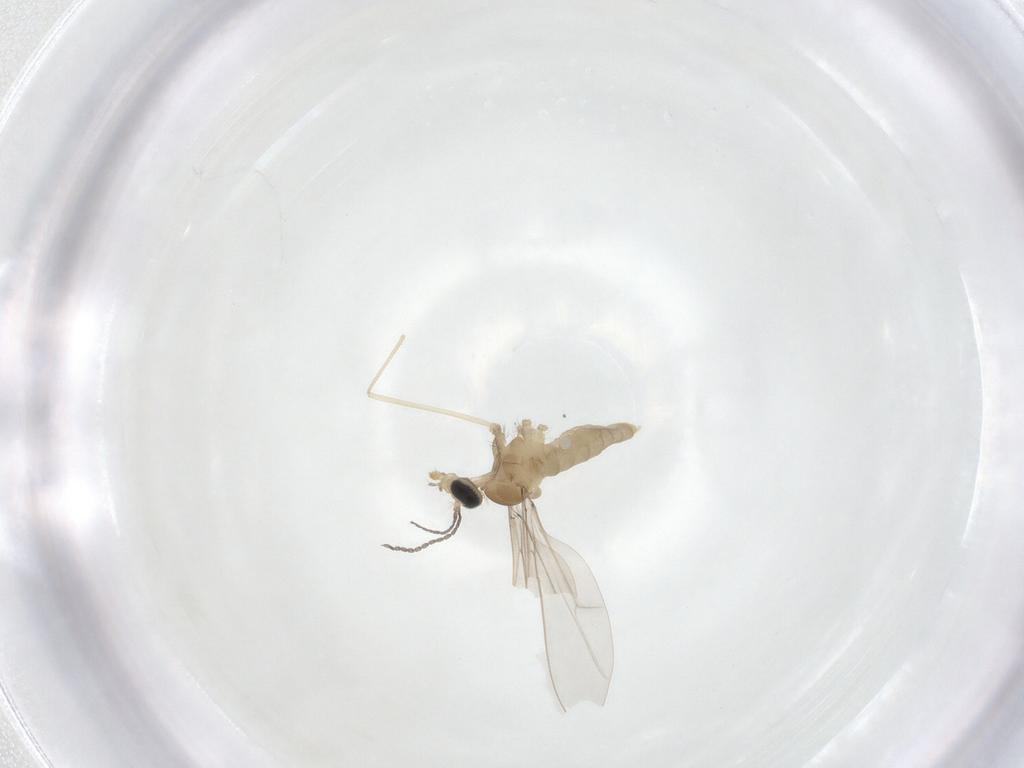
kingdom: Animalia
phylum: Arthropoda
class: Insecta
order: Diptera
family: Cecidomyiidae
